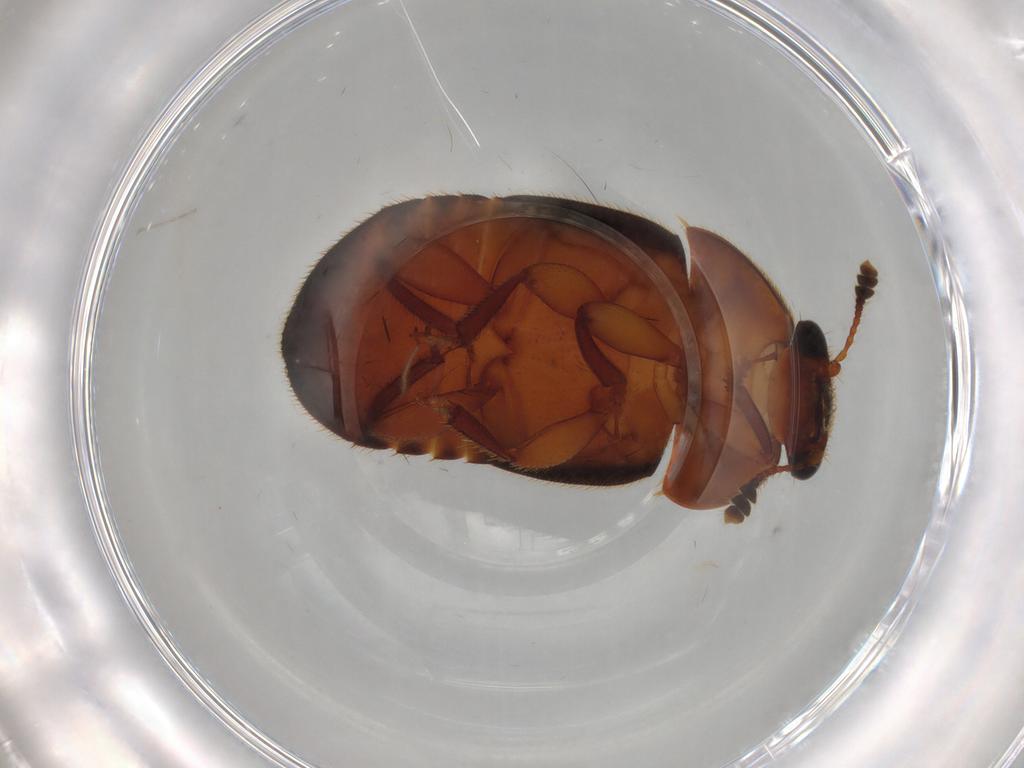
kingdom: Animalia
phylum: Arthropoda
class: Insecta
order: Coleoptera
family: Nitidulidae
